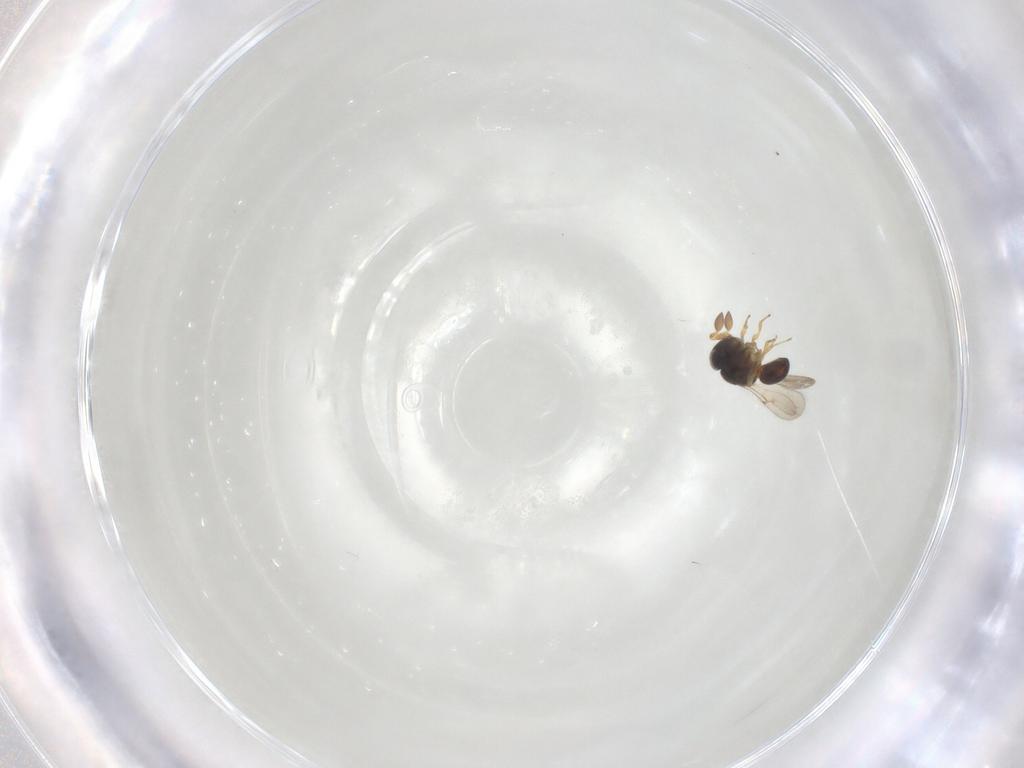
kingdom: Animalia
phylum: Arthropoda
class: Insecta
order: Hymenoptera
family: Scelionidae
